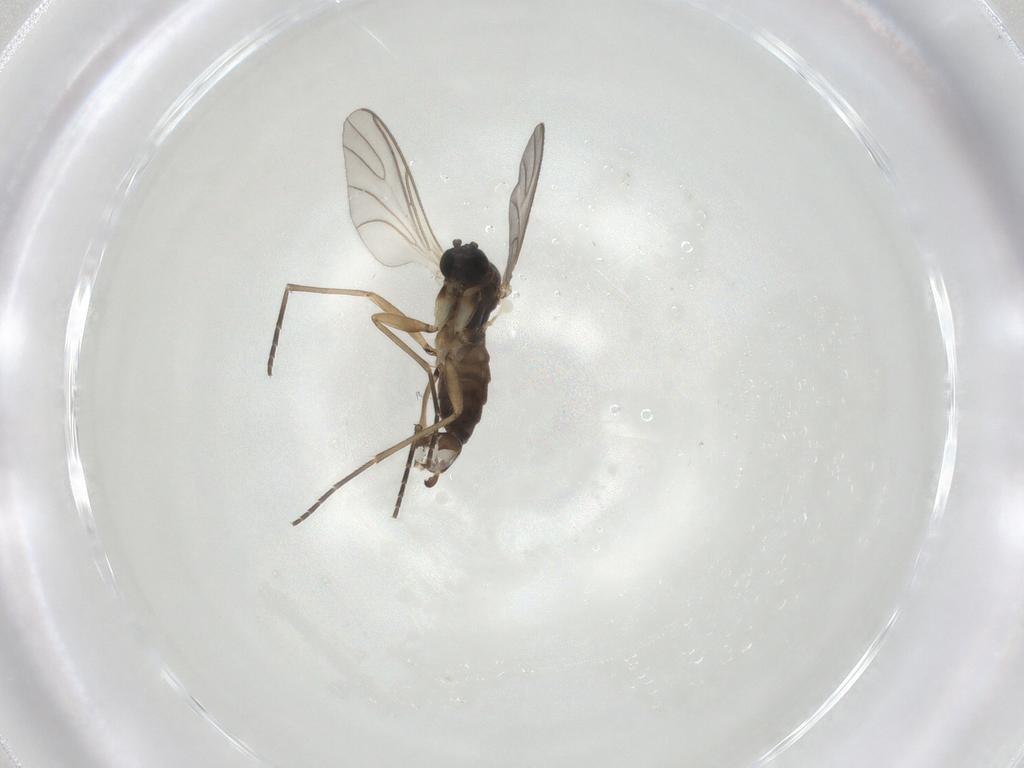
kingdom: Animalia
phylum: Arthropoda
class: Insecta
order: Diptera
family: Sciaridae
